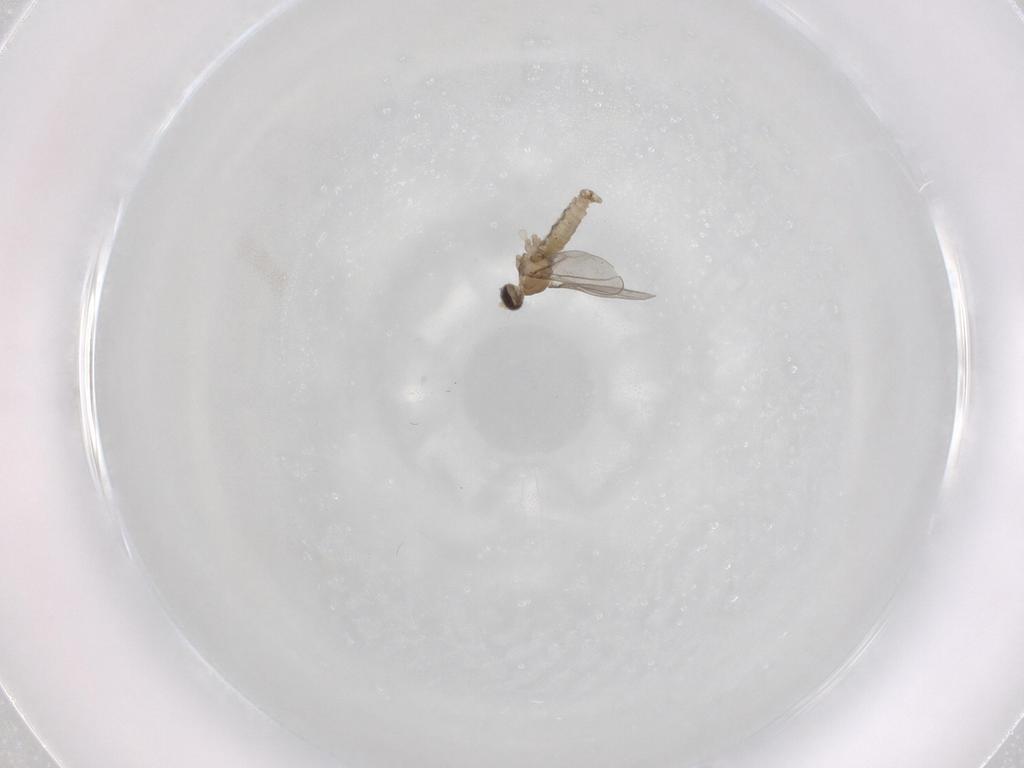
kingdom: Animalia
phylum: Arthropoda
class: Insecta
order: Diptera
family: Cecidomyiidae
